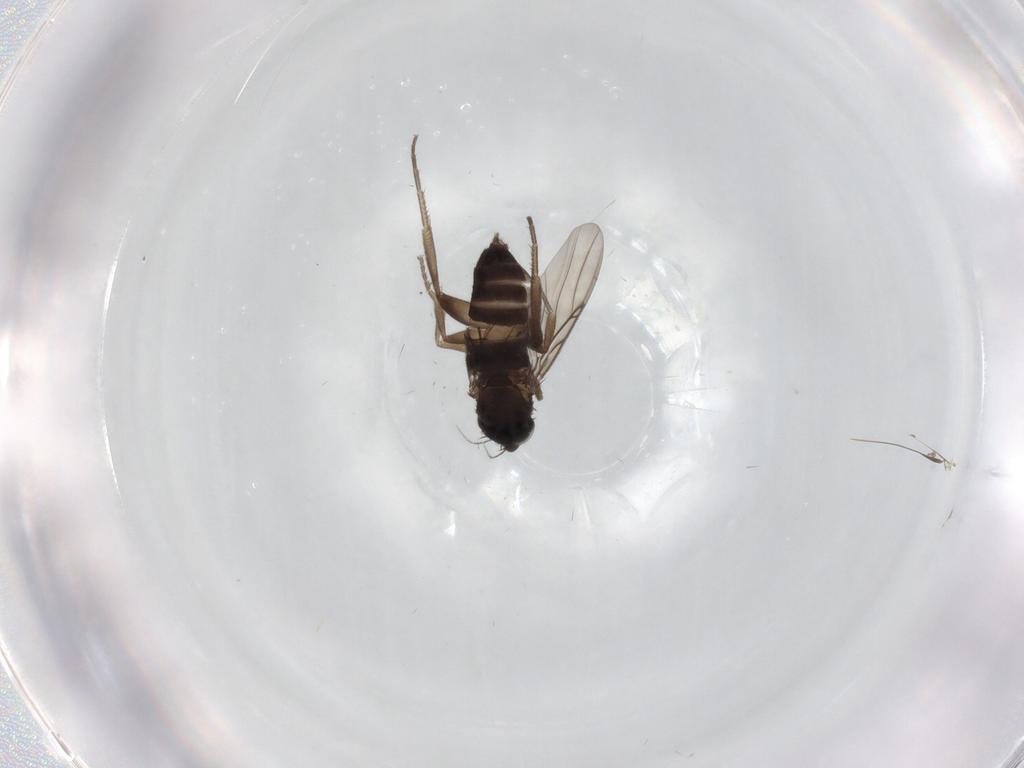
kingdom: Animalia
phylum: Arthropoda
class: Insecta
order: Diptera
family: Phoridae
